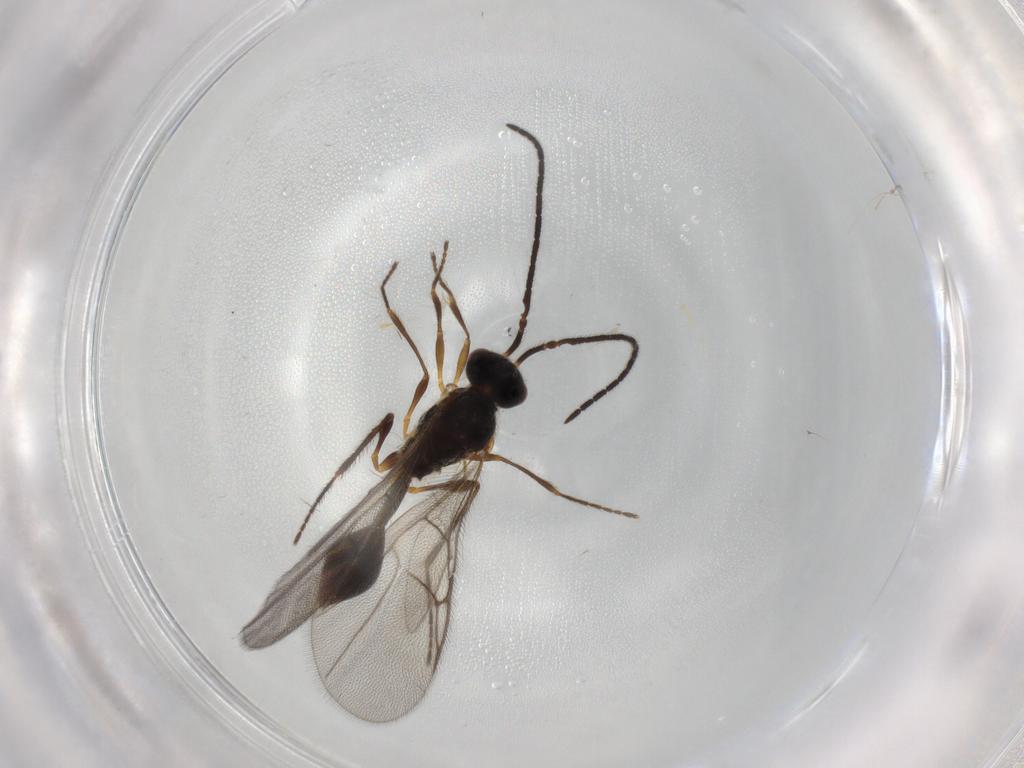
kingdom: Animalia
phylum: Arthropoda
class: Insecta
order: Hymenoptera
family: Diapriidae
